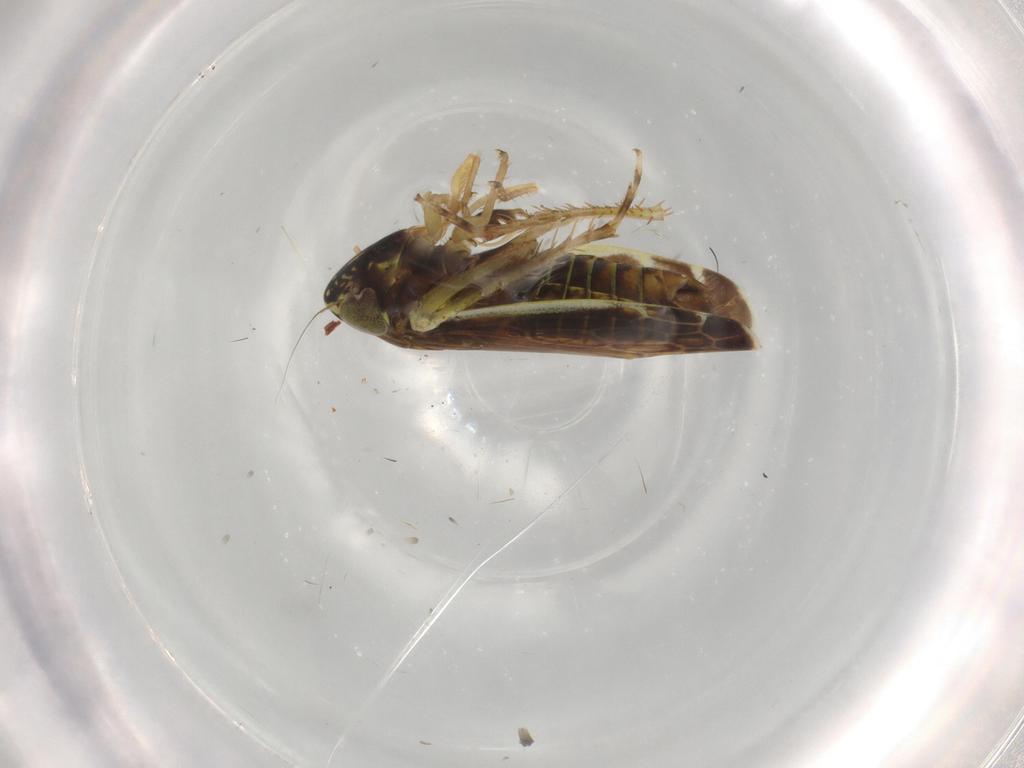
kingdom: Animalia
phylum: Arthropoda
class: Insecta
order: Hemiptera
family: Cicadellidae
